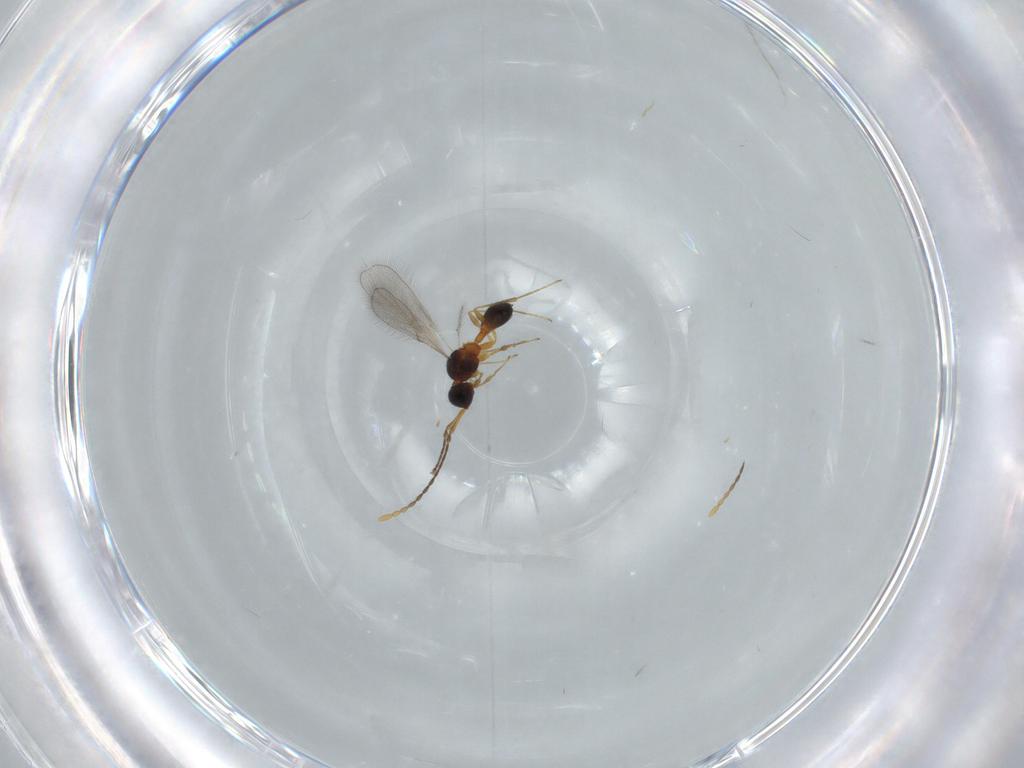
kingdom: Animalia
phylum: Arthropoda
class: Insecta
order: Hymenoptera
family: Diapriidae
